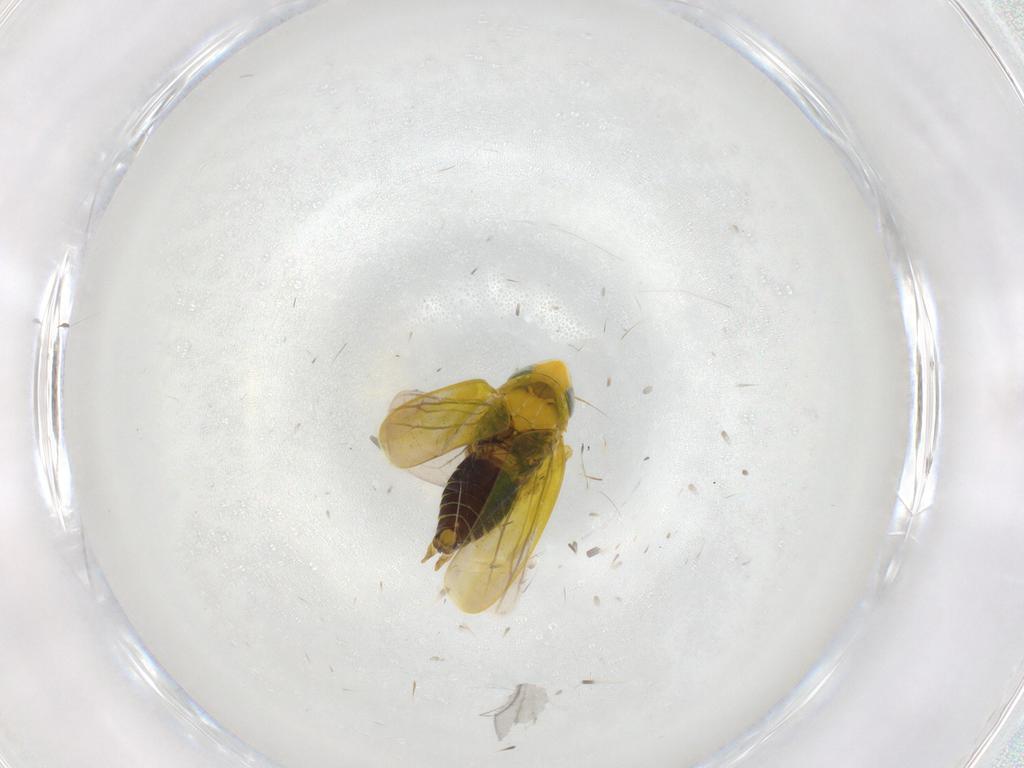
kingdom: Animalia
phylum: Arthropoda
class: Insecta
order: Hemiptera
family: Cicadellidae
